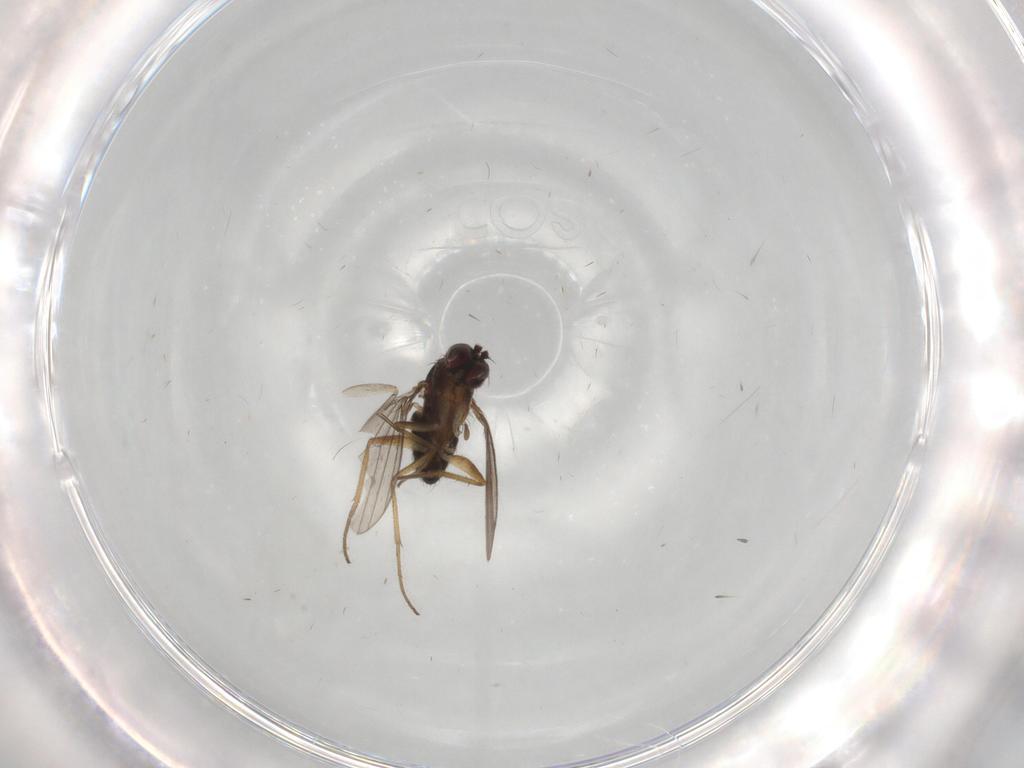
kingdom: Animalia
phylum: Arthropoda
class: Insecta
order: Diptera
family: Dolichopodidae
